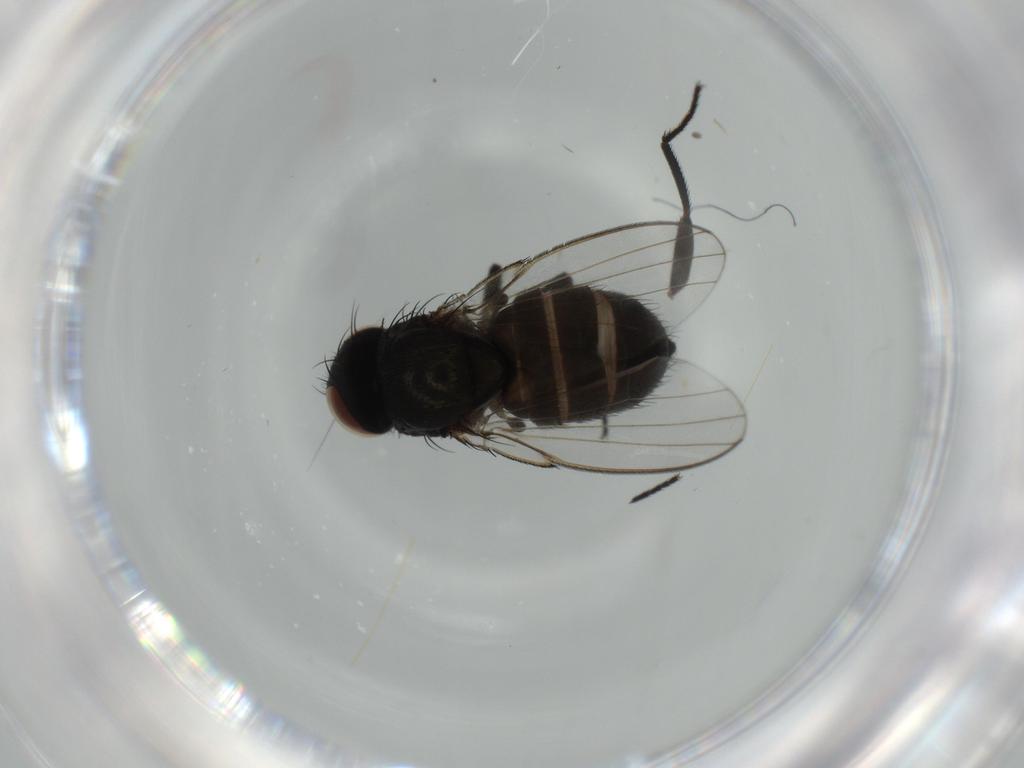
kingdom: Animalia
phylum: Arthropoda
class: Insecta
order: Diptera
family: Milichiidae
